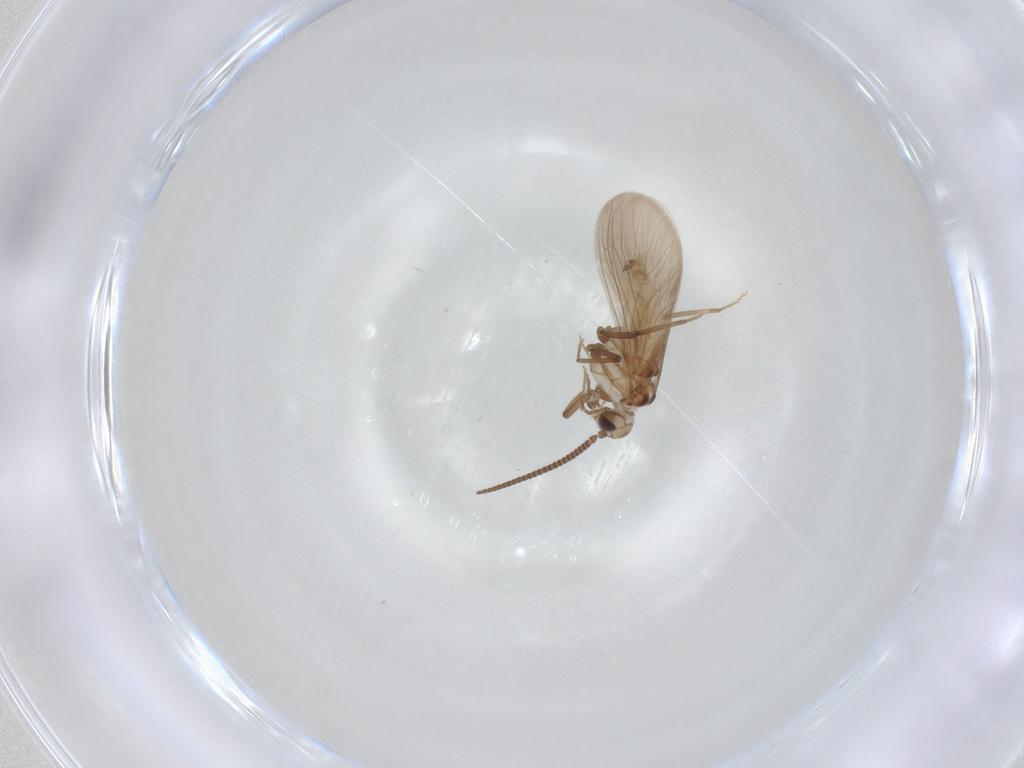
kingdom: Animalia
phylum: Arthropoda
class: Insecta
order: Neuroptera
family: Coniopterygidae
